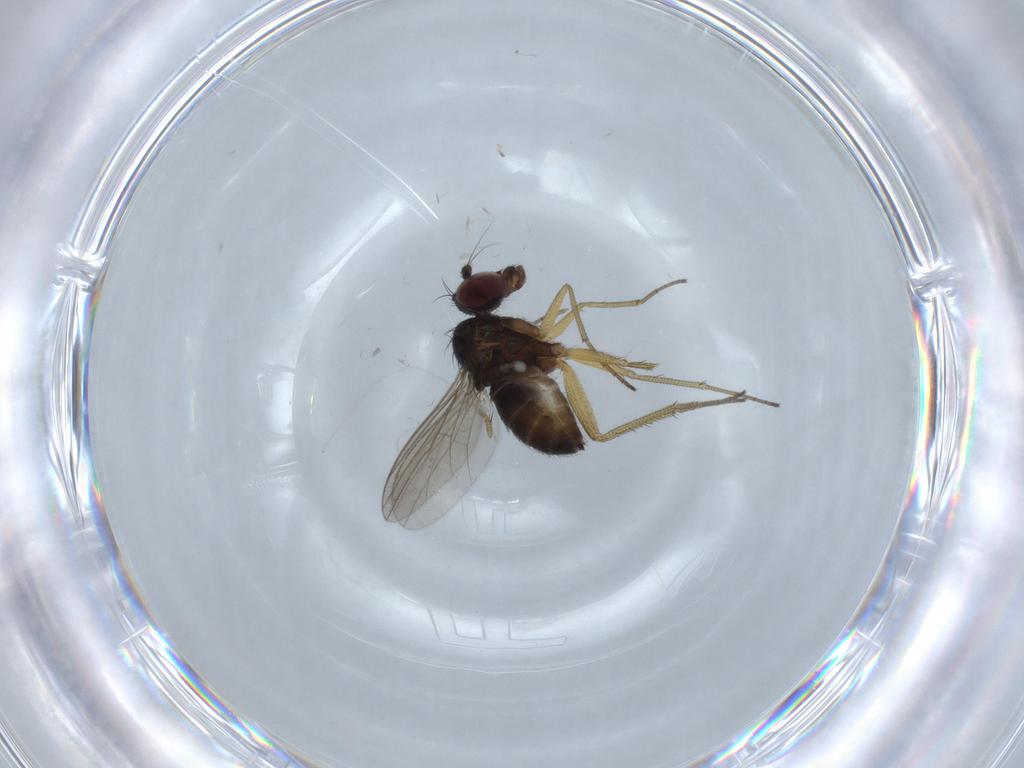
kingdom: Animalia
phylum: Arthropoda
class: Insecta
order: Diptera
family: Dolichopodidae
